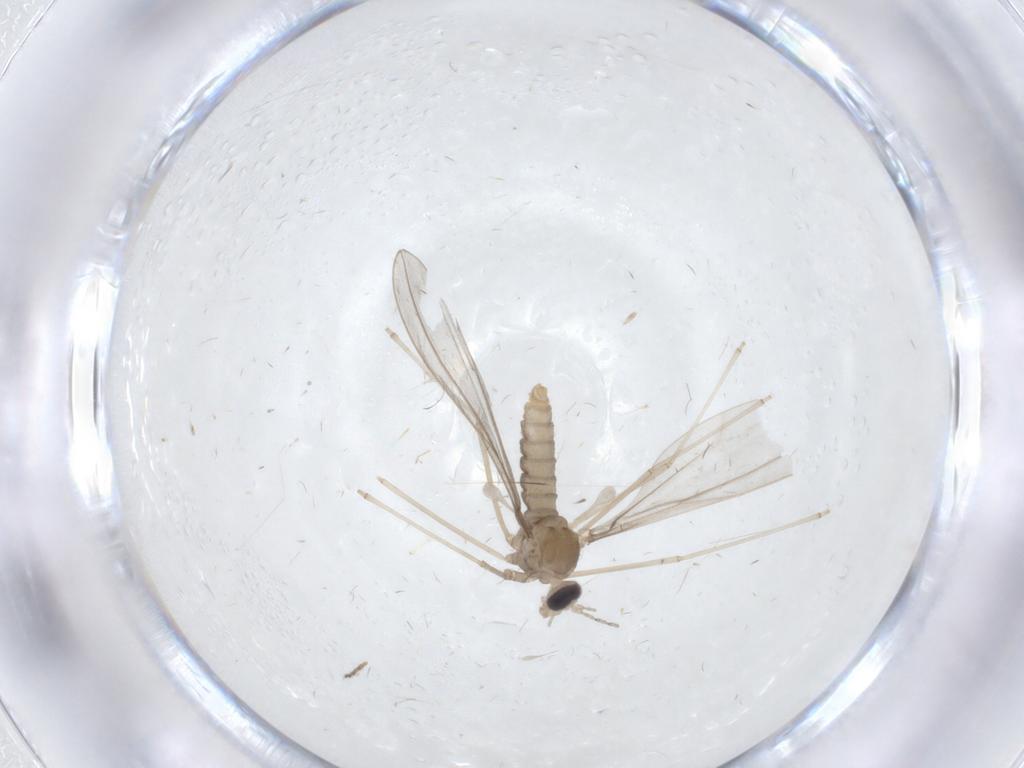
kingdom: Animalia
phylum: Arthropoda
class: Insecta
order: Diptera
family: Cecidomyiidae
